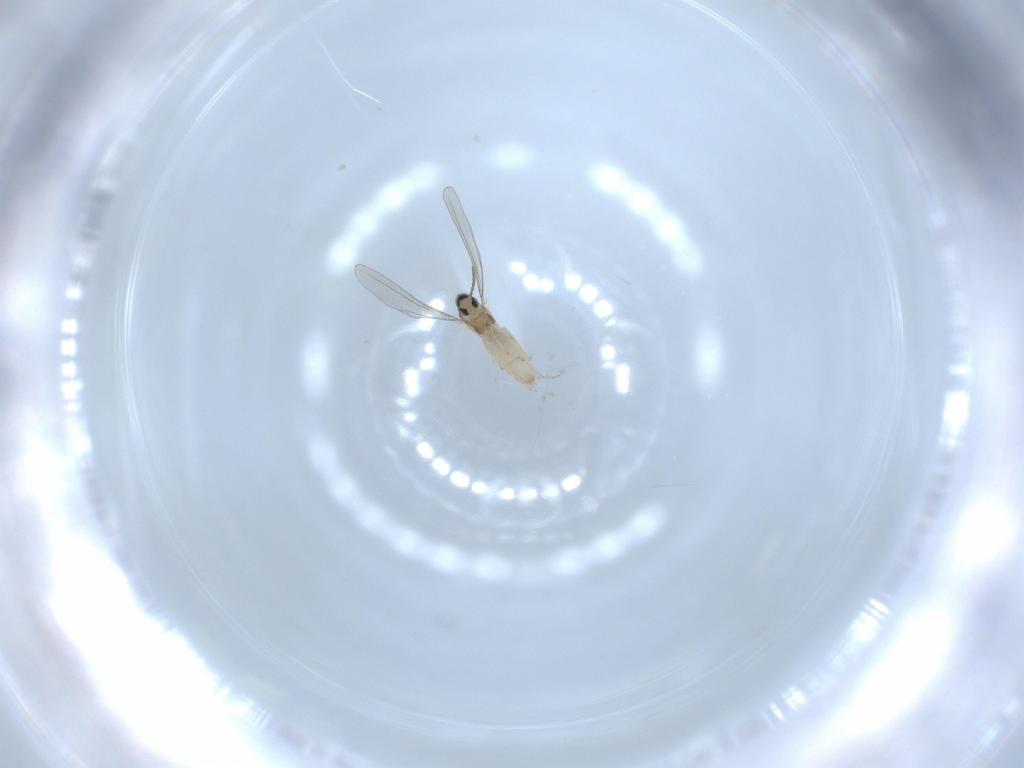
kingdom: Animalia
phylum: Arthropoda
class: Insecta
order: Diptera
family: Cecidomyiidae
